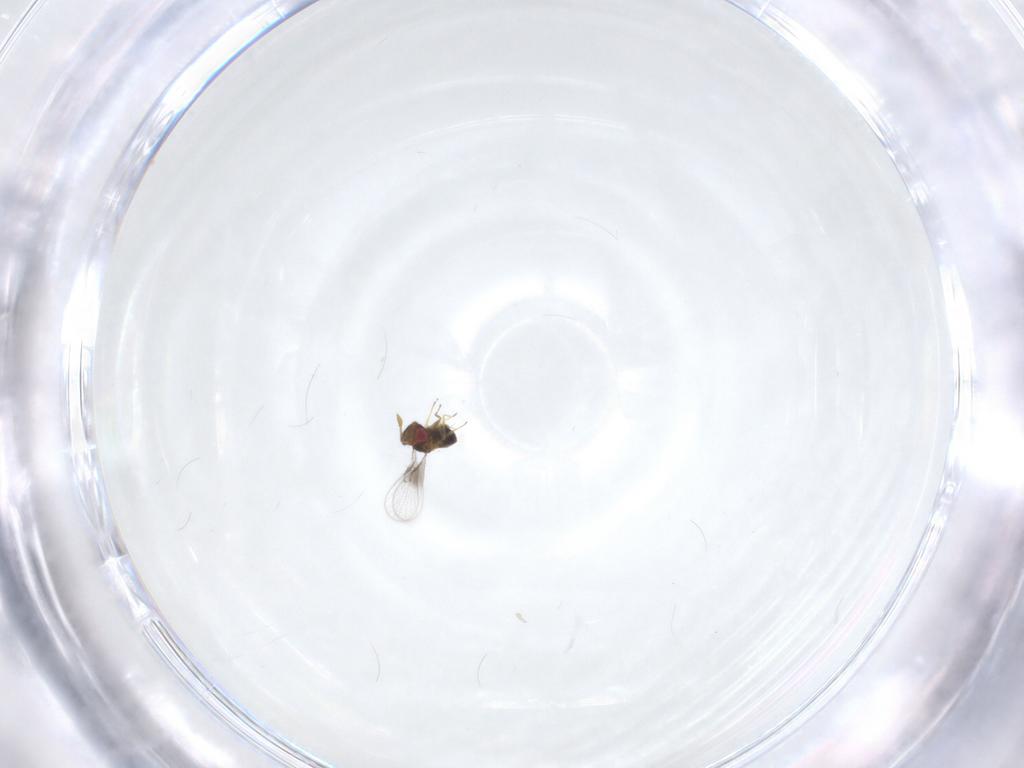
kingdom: Animalia
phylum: Arthropoda
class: Insecta
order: Hymenoptera
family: Trichogrammatidae
